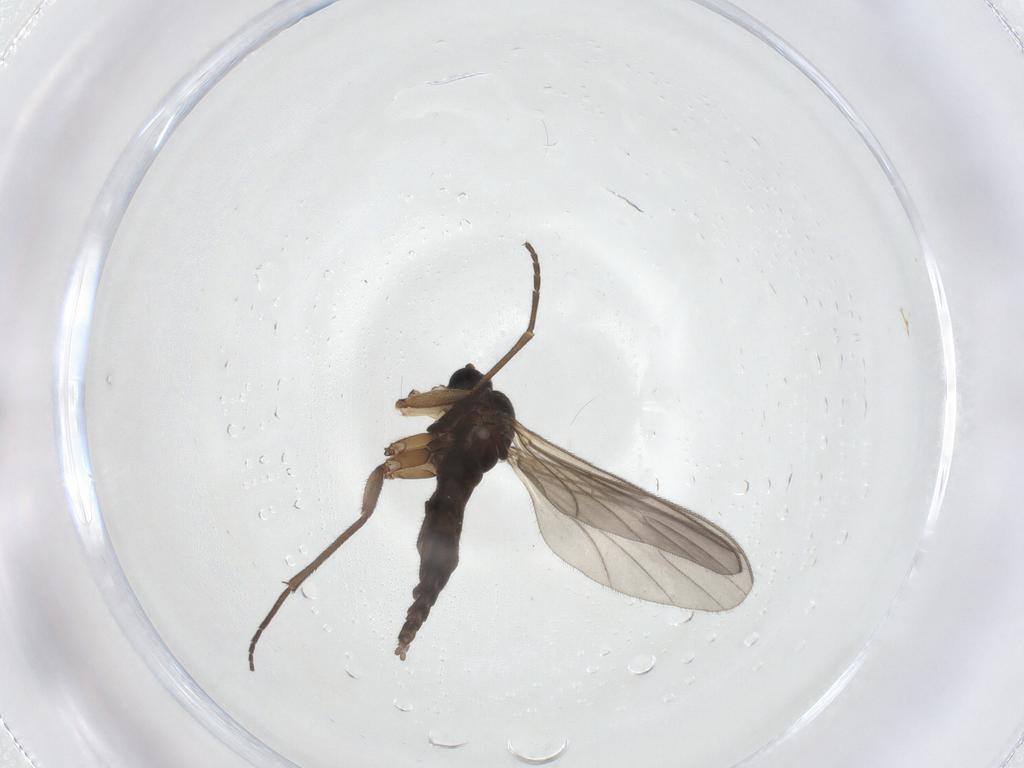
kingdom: Animalia
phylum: Arthropoda
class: Insecta
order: Diptera
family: Sciaridae
